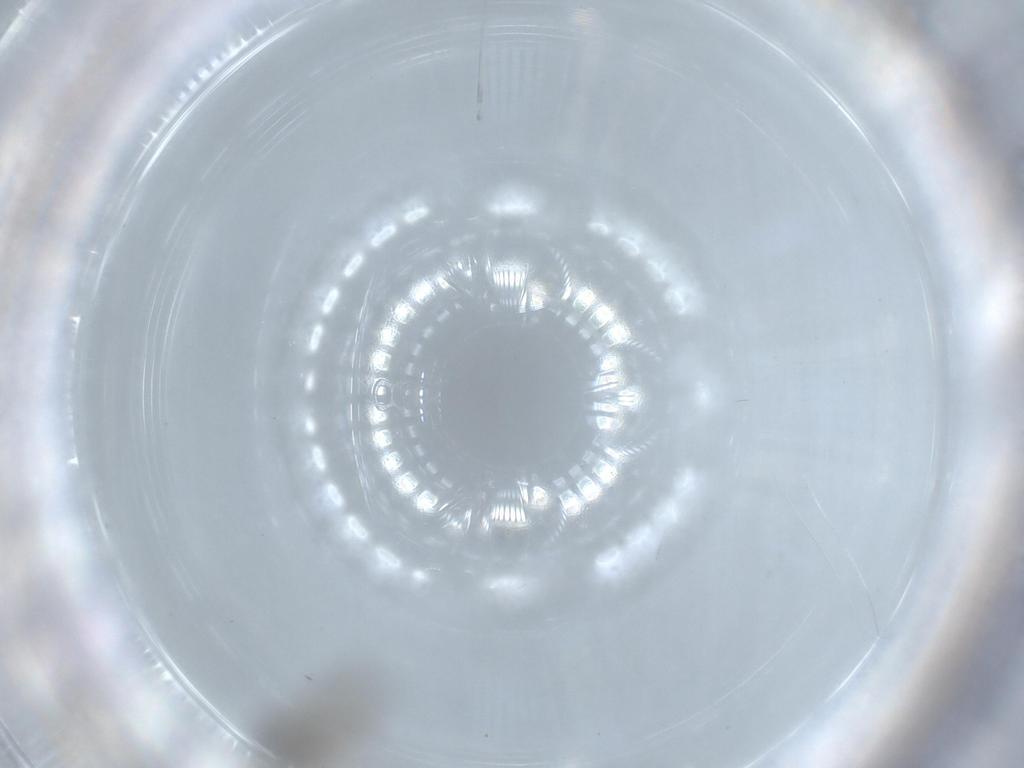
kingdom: Animalia
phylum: Arthropoda
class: Insecta
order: Hymenoptera
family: Platygastridae
